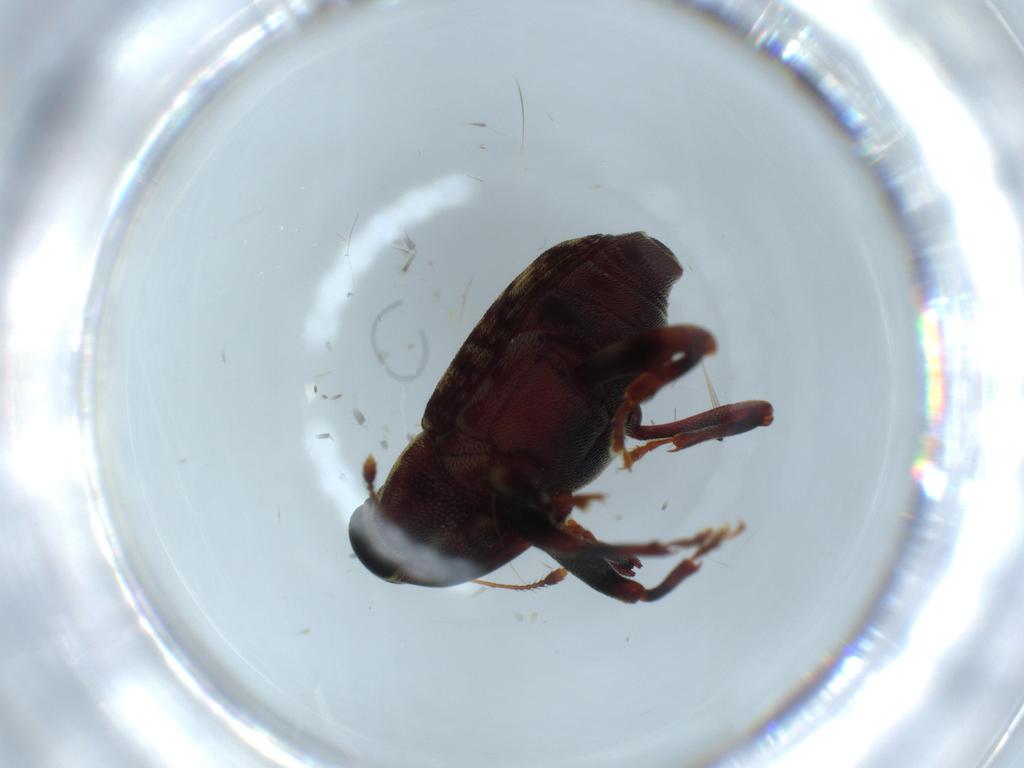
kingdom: Animalia
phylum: Arthropoda
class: Insecta
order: Coleoptera
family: Curculionidae
